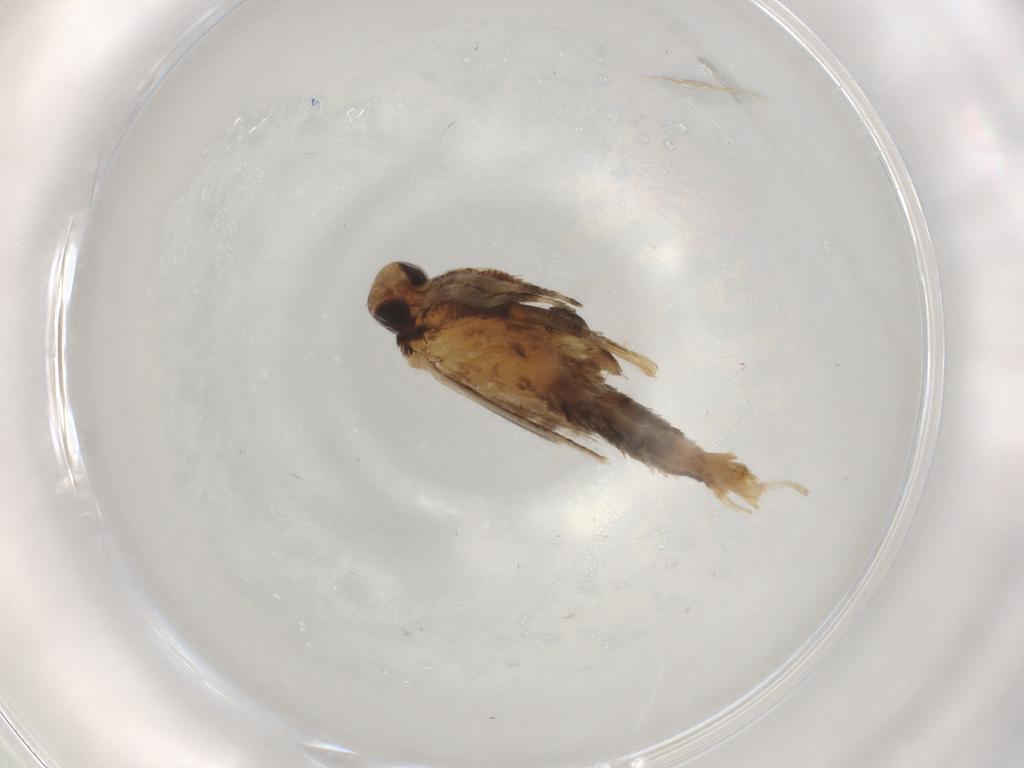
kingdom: Animalia
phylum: Arthropoda
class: Insecta
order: Lepidoptera
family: Gelechiidae
